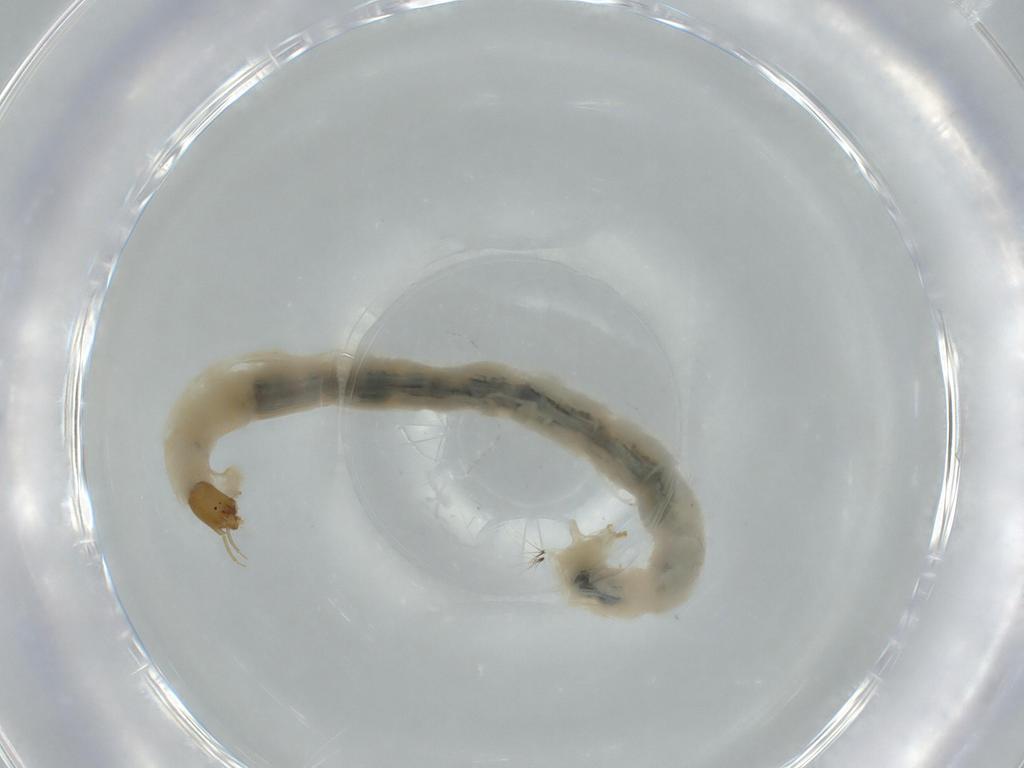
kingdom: Animalia
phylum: Arthropoda
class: Insecta
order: Diptera
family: Chironomidae
